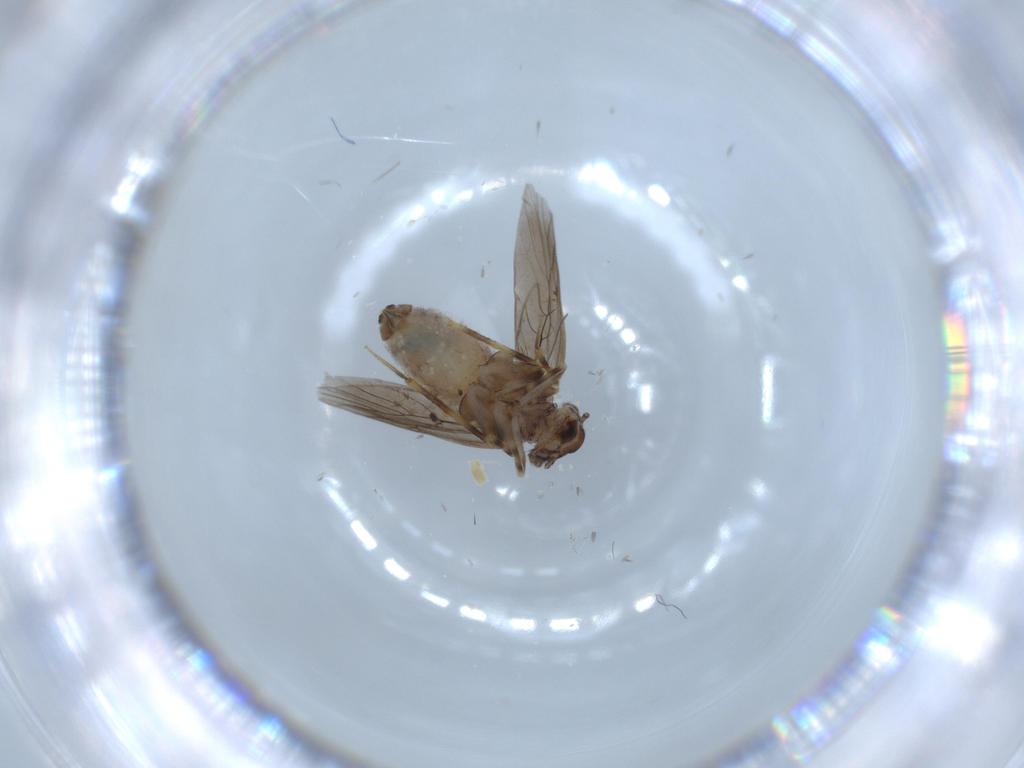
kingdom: Animalia
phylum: Arthropoda
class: Insecta
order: Psocodea
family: Lepidopsocidae
